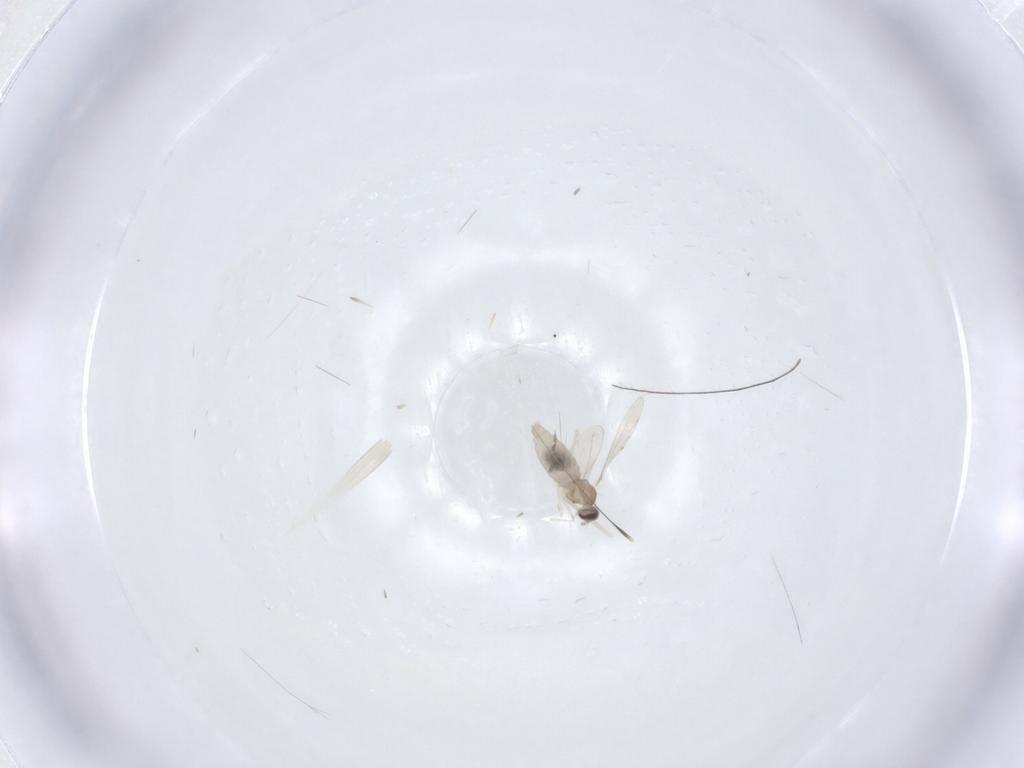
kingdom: Animalia
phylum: Arthropoda
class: Insecta
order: Diptera
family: Cecidomyiidae
